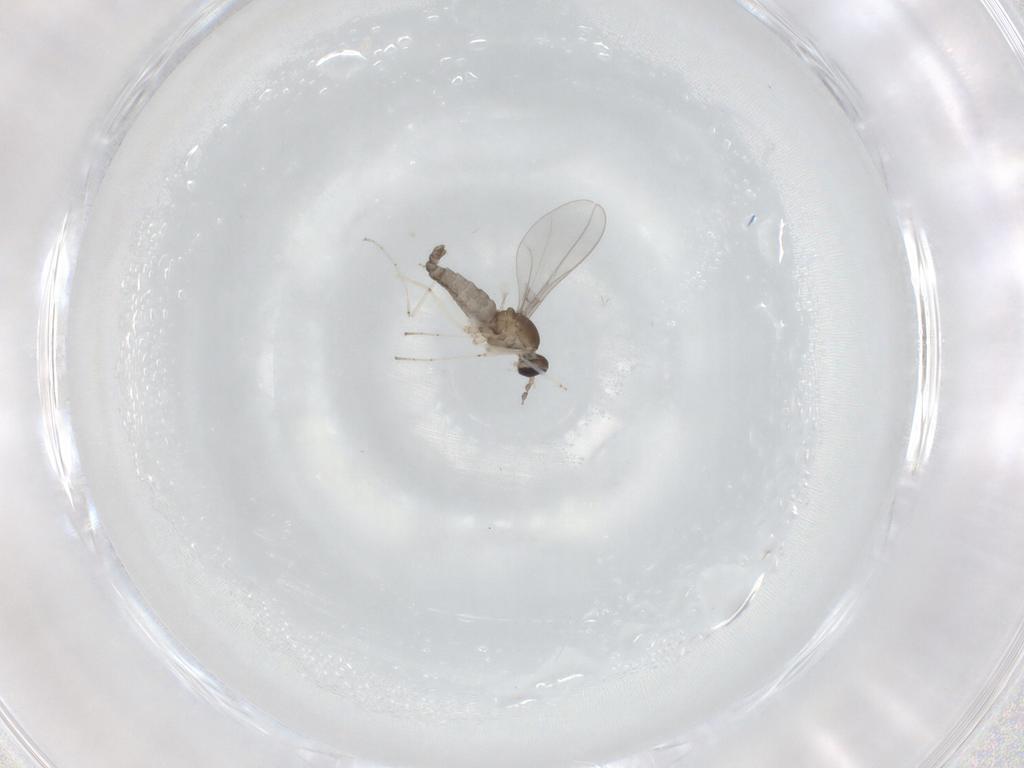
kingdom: Animalia
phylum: Arthropoda
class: Insecta
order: Diptera
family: Cecidomyiidae
